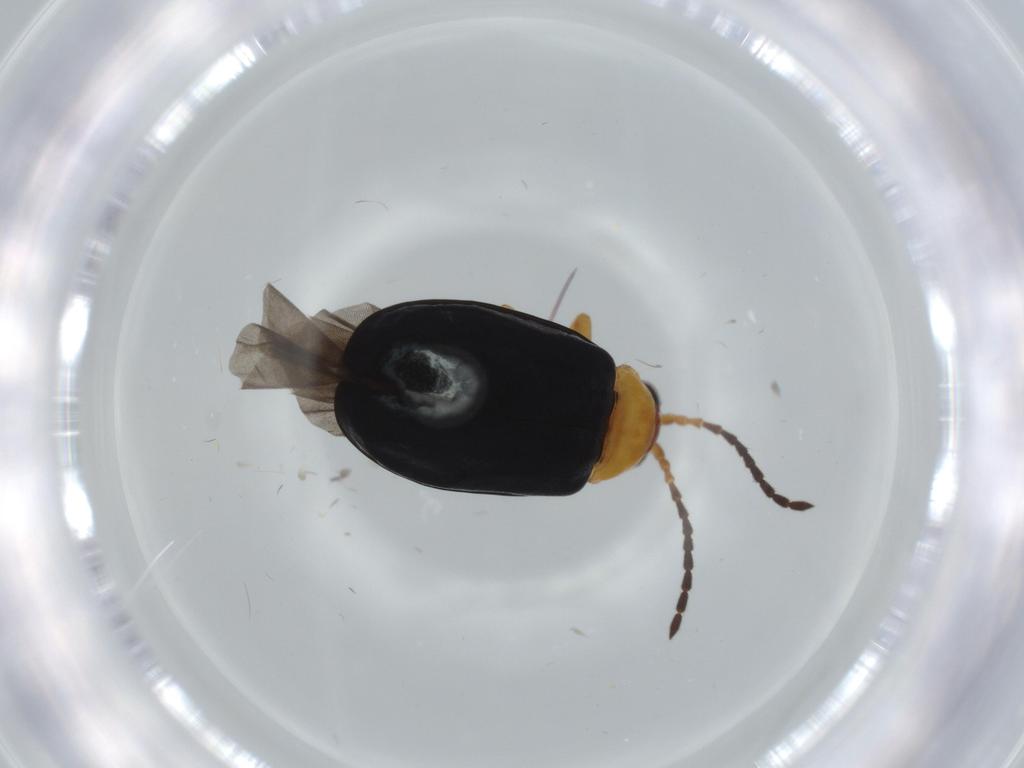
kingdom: Animalia
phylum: Arthropoda
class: Insecta
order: Coleoptera
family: Chrysomelidae
